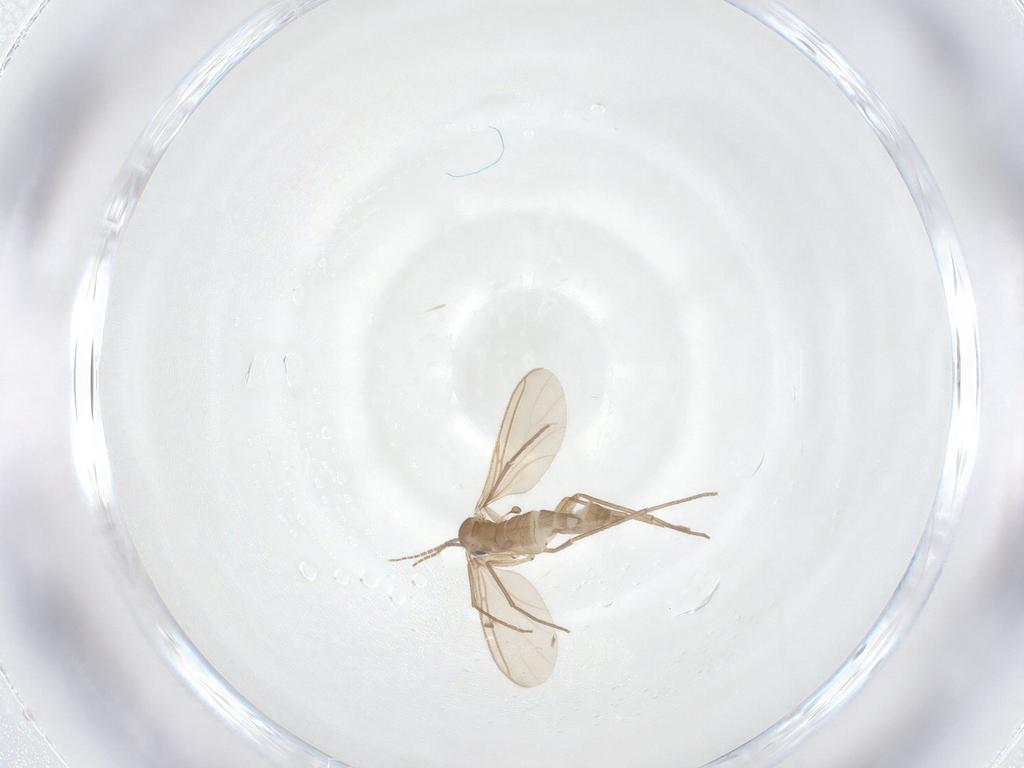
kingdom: Animalia
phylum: Arthropoda
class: Insecta
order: Diptera
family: Sciaridae
